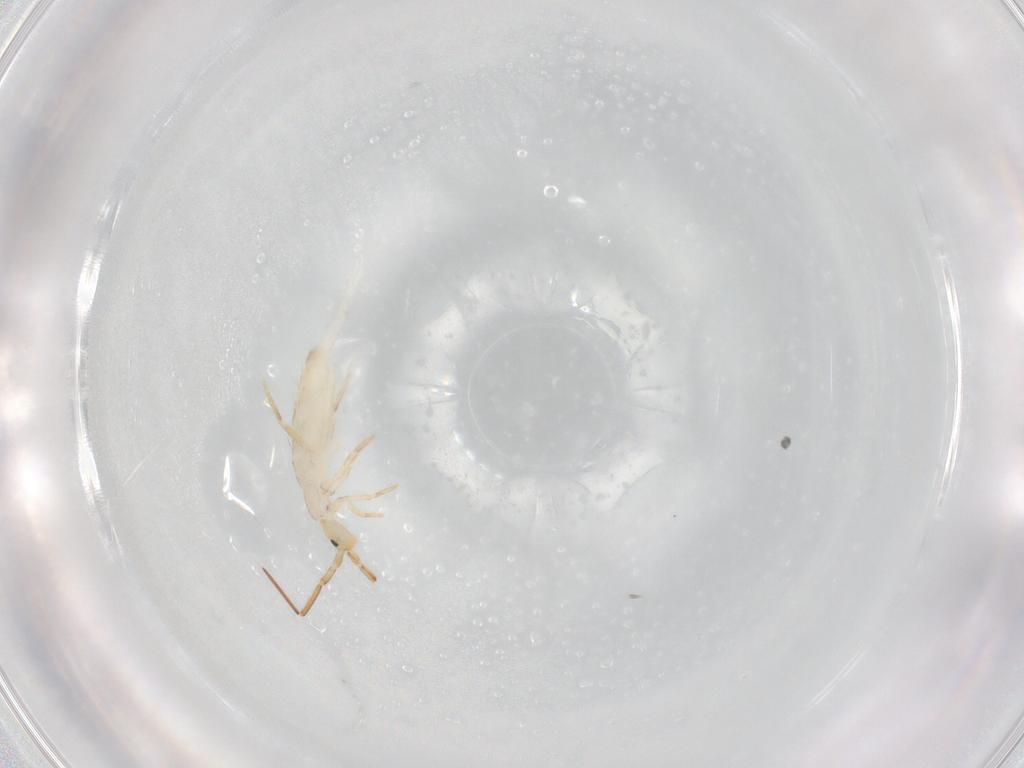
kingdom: Animalia
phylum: Arthropoda
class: Collembola
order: Entomobryomorpha
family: Entomobryidae
